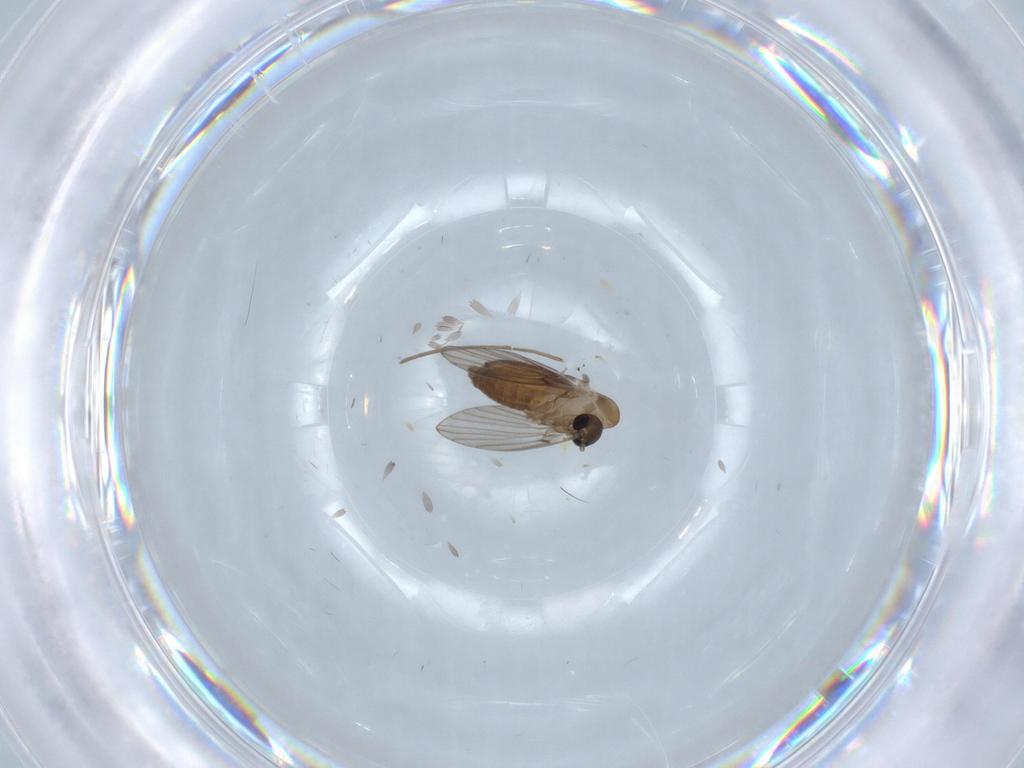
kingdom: Animalia
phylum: Arthropoda
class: Insecta
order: Diptera
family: Psychodidae
